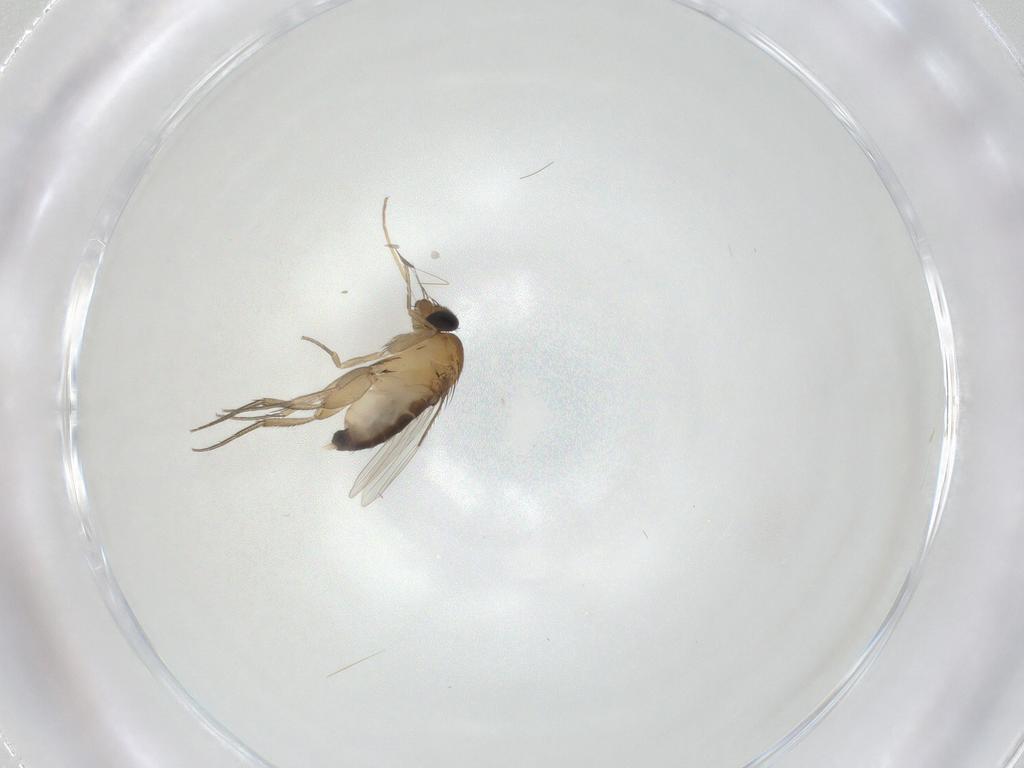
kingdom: Animalia
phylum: Arthropoda
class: Insecta
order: Diptera
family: Phoridae
